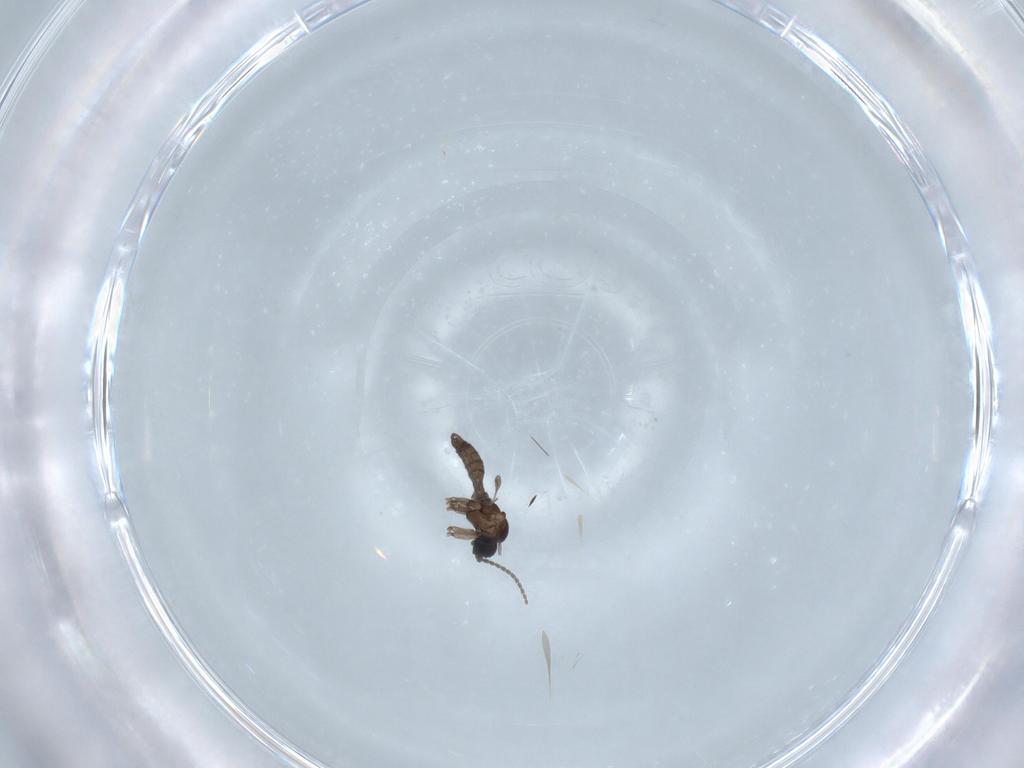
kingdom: Animalia
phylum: Arthropoda
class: Insecta
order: Diptera
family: Sciaridae
